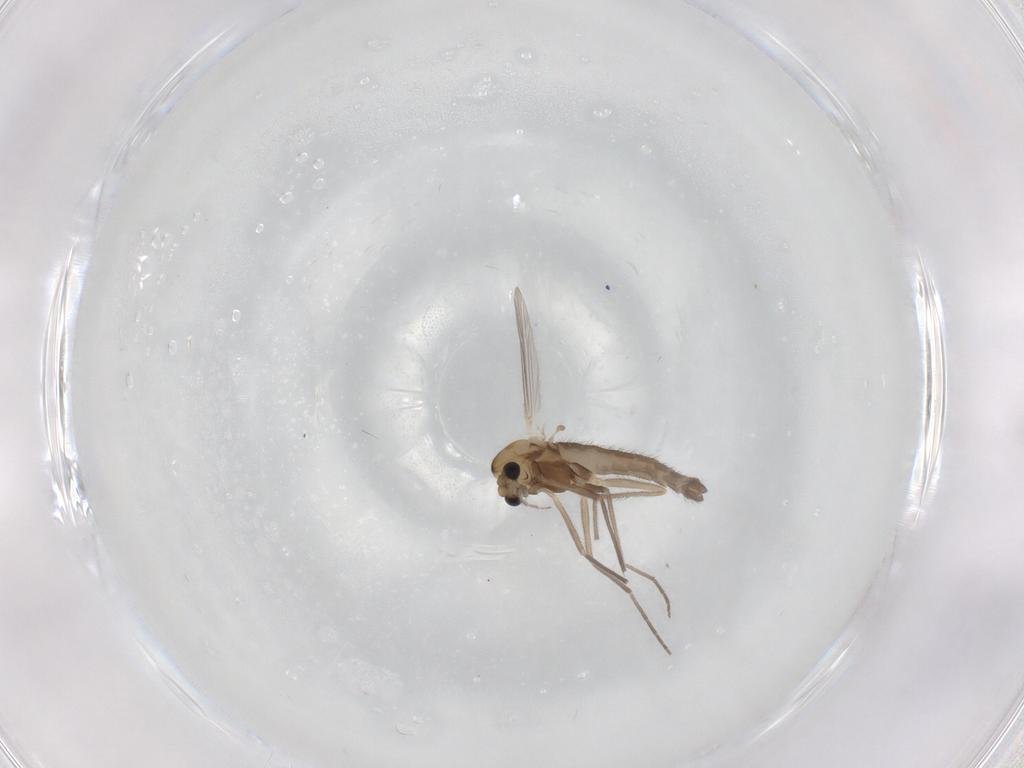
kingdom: Animalia
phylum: Arthropoda
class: Insecta
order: Diptera
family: Chironomidae
